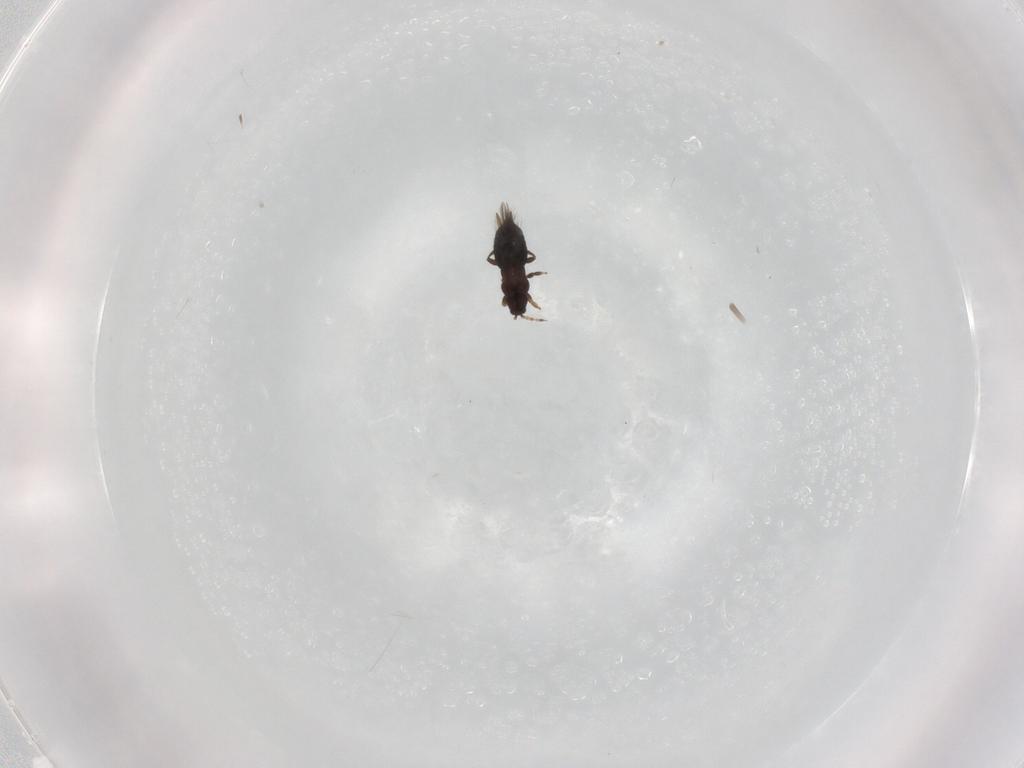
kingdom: Animalia
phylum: Arthropoda
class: Insecta
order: Thysanoptera
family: Thripidae
